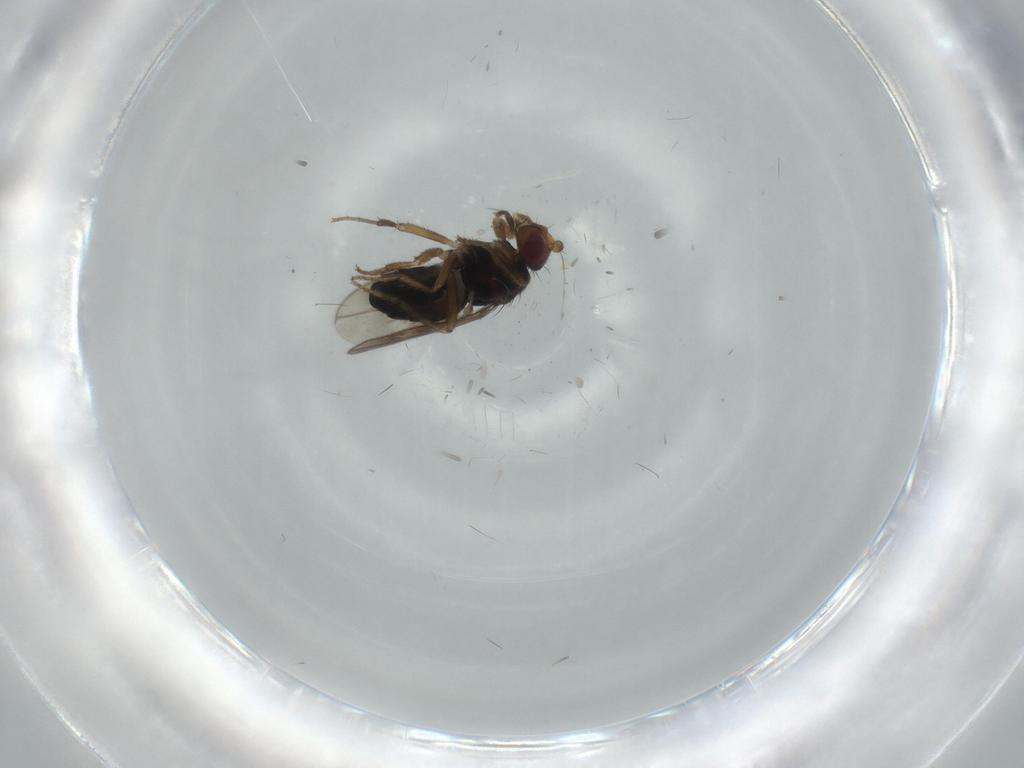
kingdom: Animalia
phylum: Arthropoda
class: Insecta
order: Diptera
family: Sphaeroceridae
